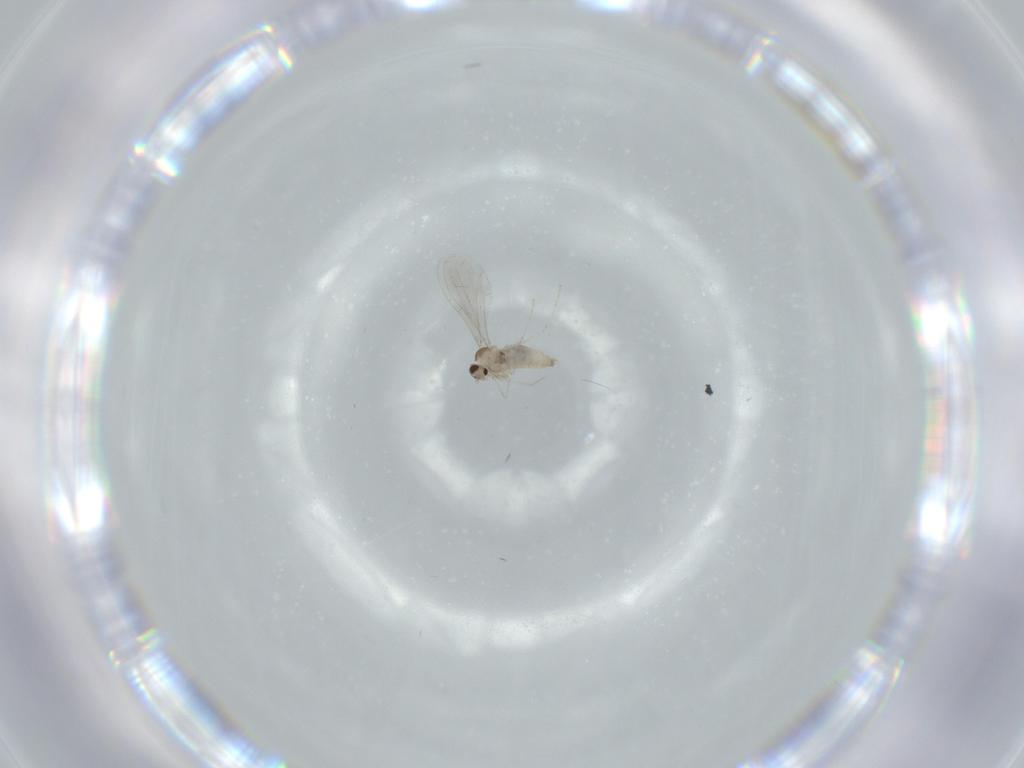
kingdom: Animalia
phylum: Arthropoda
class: Insecta
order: Diptera
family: Cecidomyiidae
